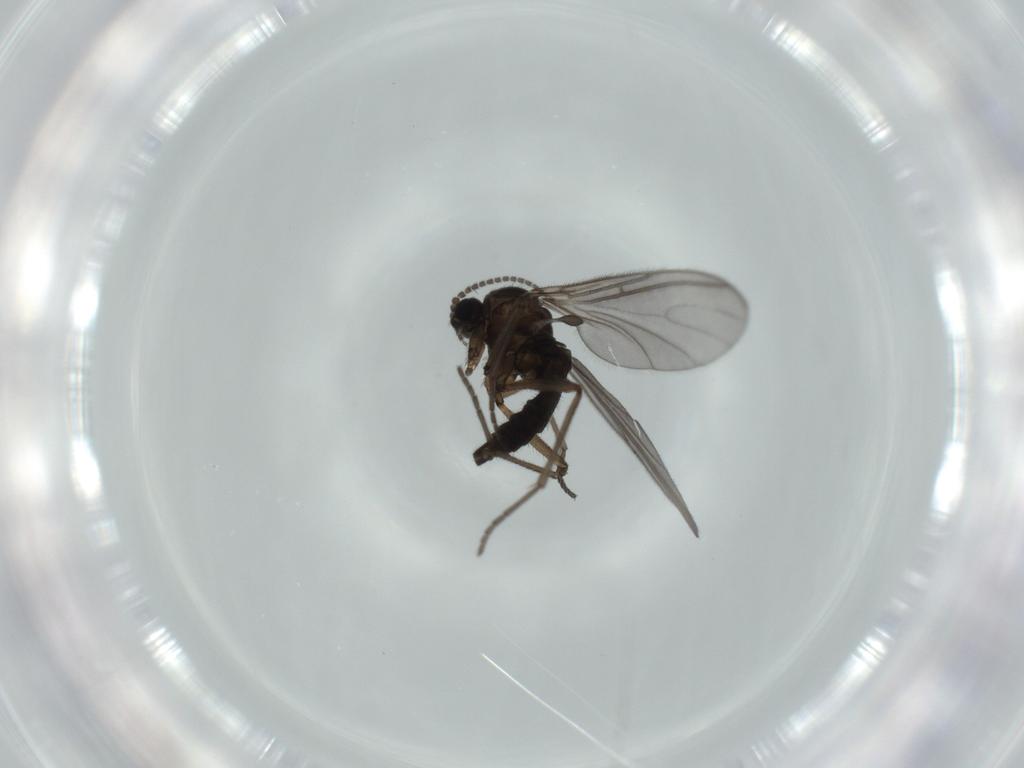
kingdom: Animalia
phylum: Arthropoda
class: Insecta
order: Diptera
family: Sciaridae
